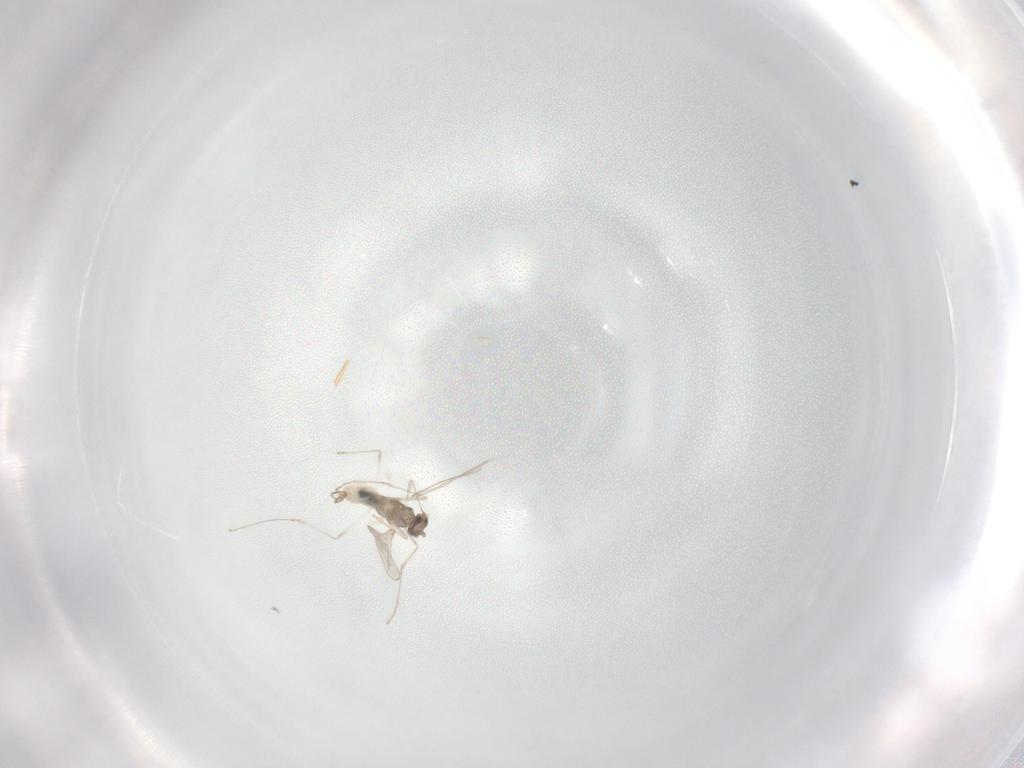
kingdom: Animalia
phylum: Arthropoda
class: Insecta
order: Diptera
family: Cecidomyiidae
